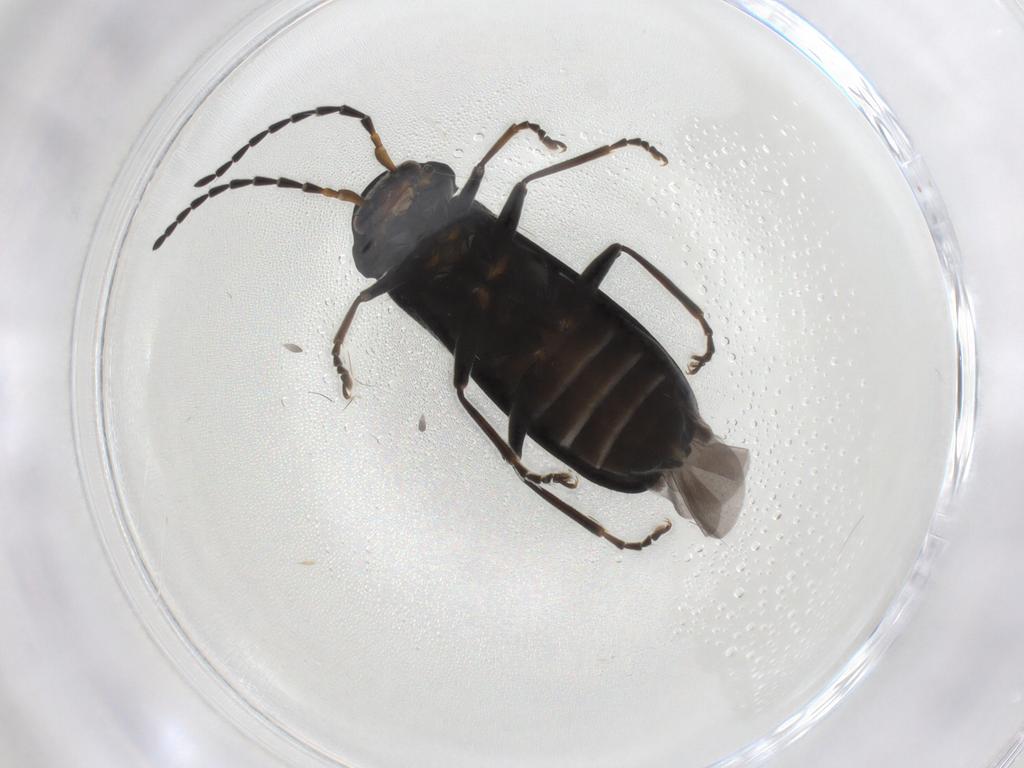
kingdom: Animalia
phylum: Arthropoda
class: Insecta
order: Coleoptera
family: Cantharidae
